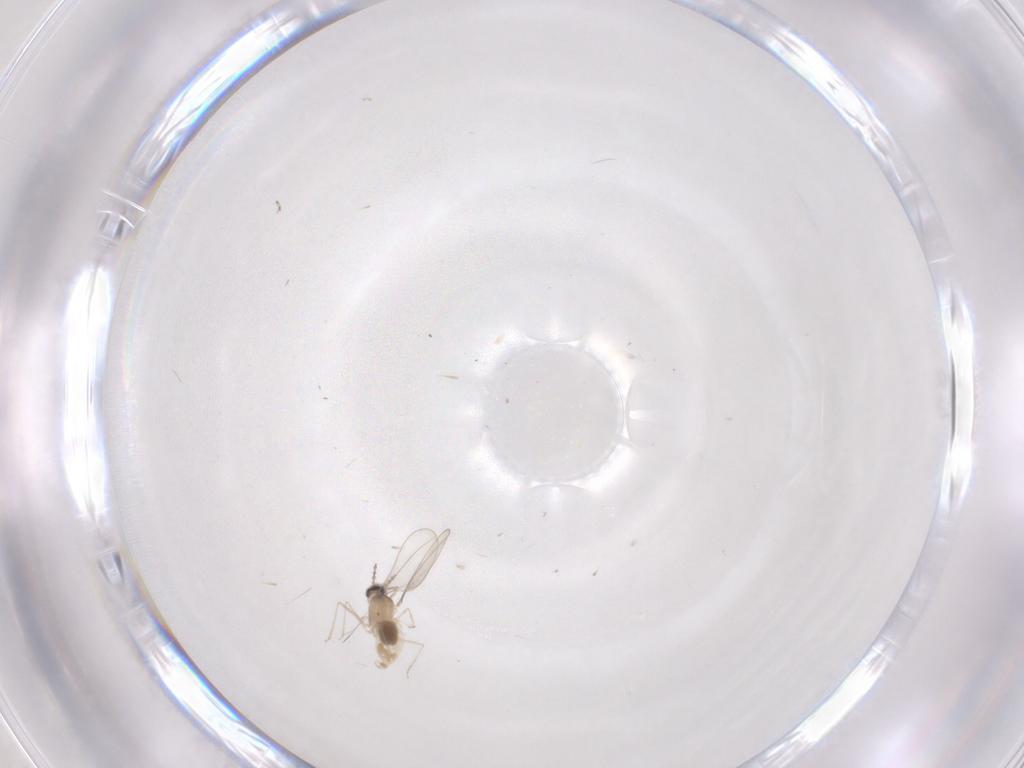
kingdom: Animalia
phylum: Arthropoda
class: Insecta
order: Diptera
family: Cecidomyiidae
